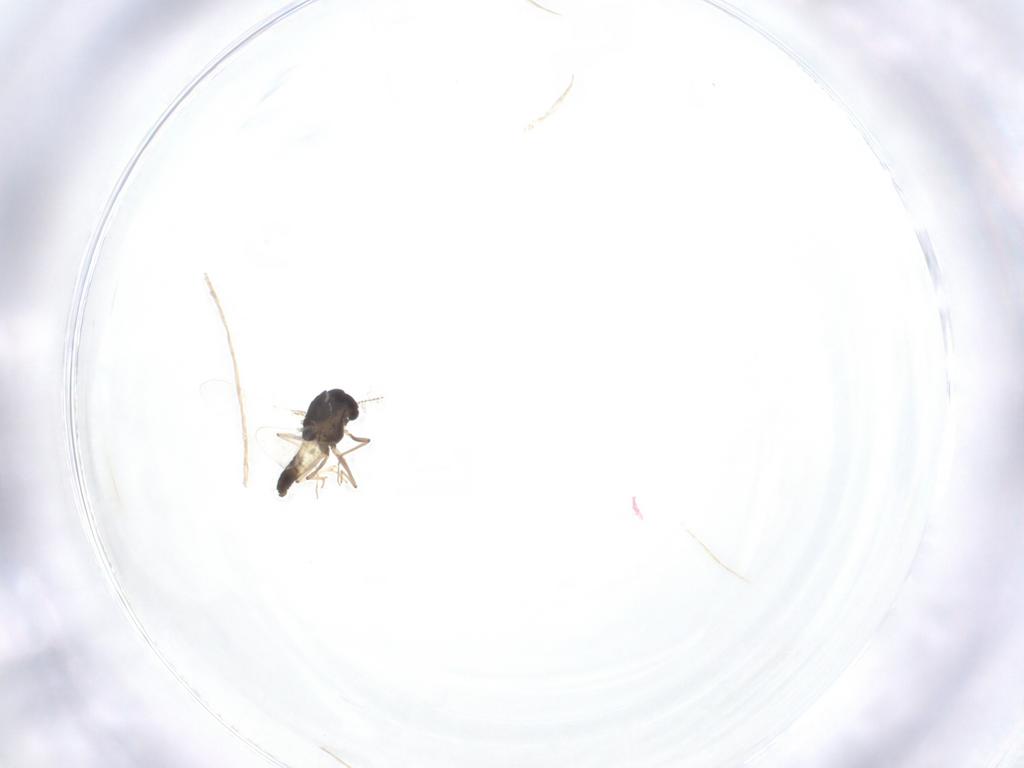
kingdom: Animalia
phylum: Arthropoda
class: Insecta
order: Diptera
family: Chironomidae
